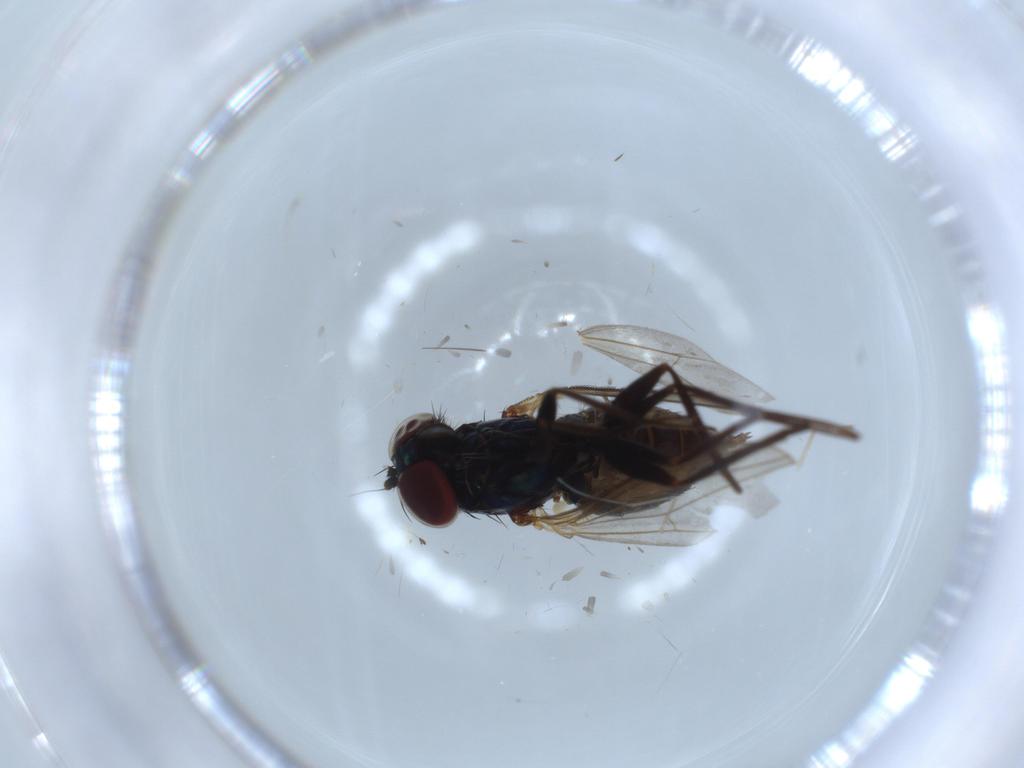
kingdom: Animalia
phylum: Arthropoda
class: Insecta
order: Diptera
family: Dolichopodidae
